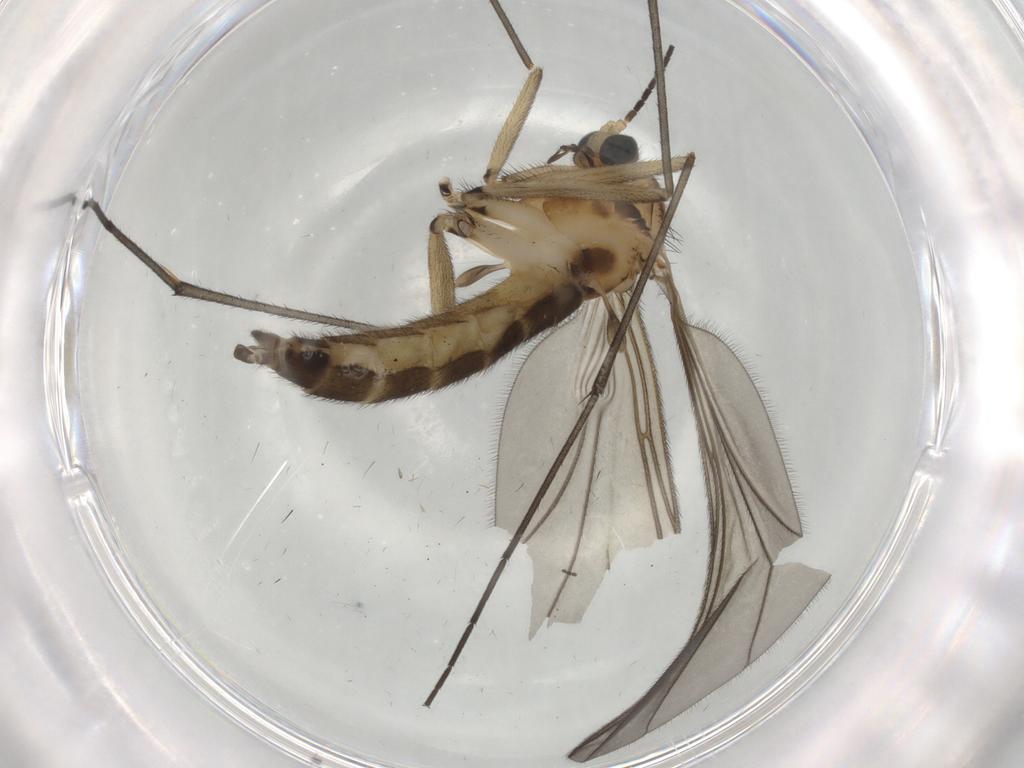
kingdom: Animalia
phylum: Arthropoda
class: Insecta
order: Diptera
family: Sciaridae
